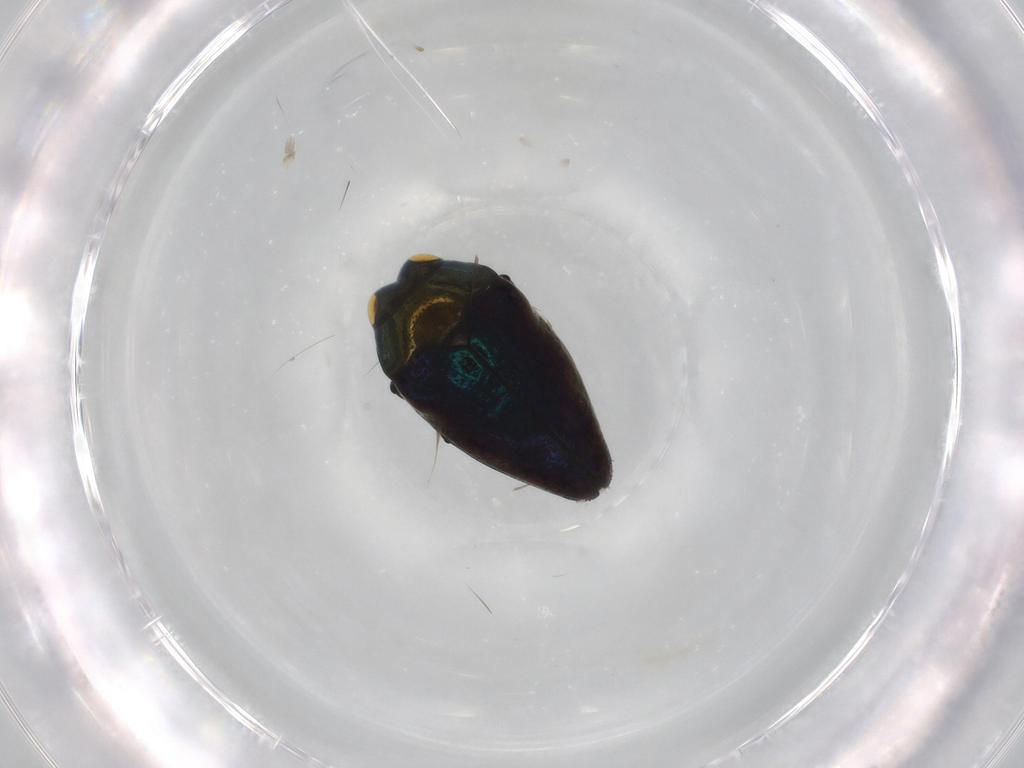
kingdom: Animalia
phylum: Arthropoda
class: Insecta
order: Coleoptera
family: Buprestidae
